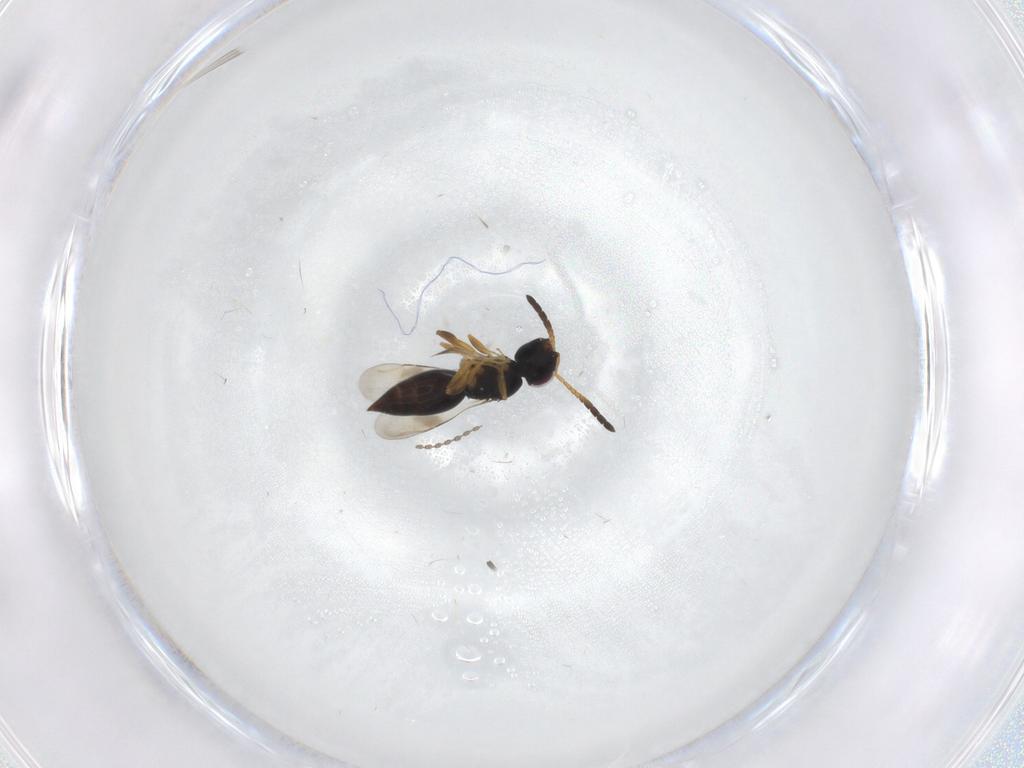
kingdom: Animalia
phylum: Arthropoda
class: Insecta
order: Hymenoptera
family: Ceraphronidae
